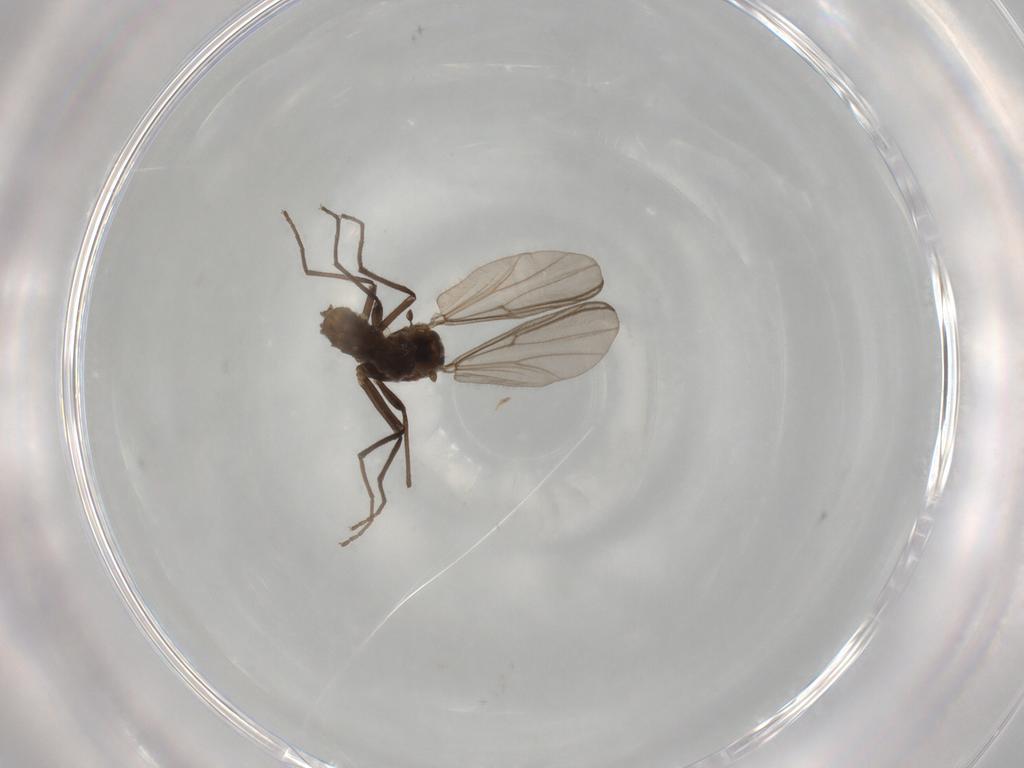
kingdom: Animalia
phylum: Arthropoda
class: Insecta
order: Diptera
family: Chironomidae
